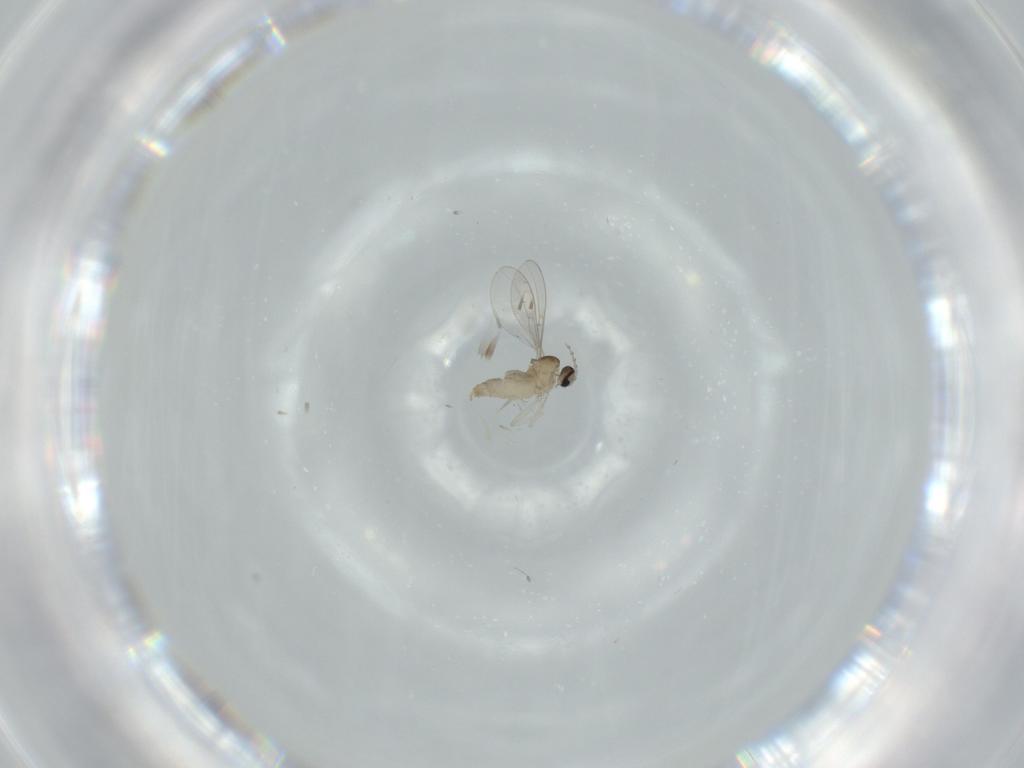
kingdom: Animalia
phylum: Arthropoda
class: Insecta
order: Diptera
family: Cecidomyiidae
